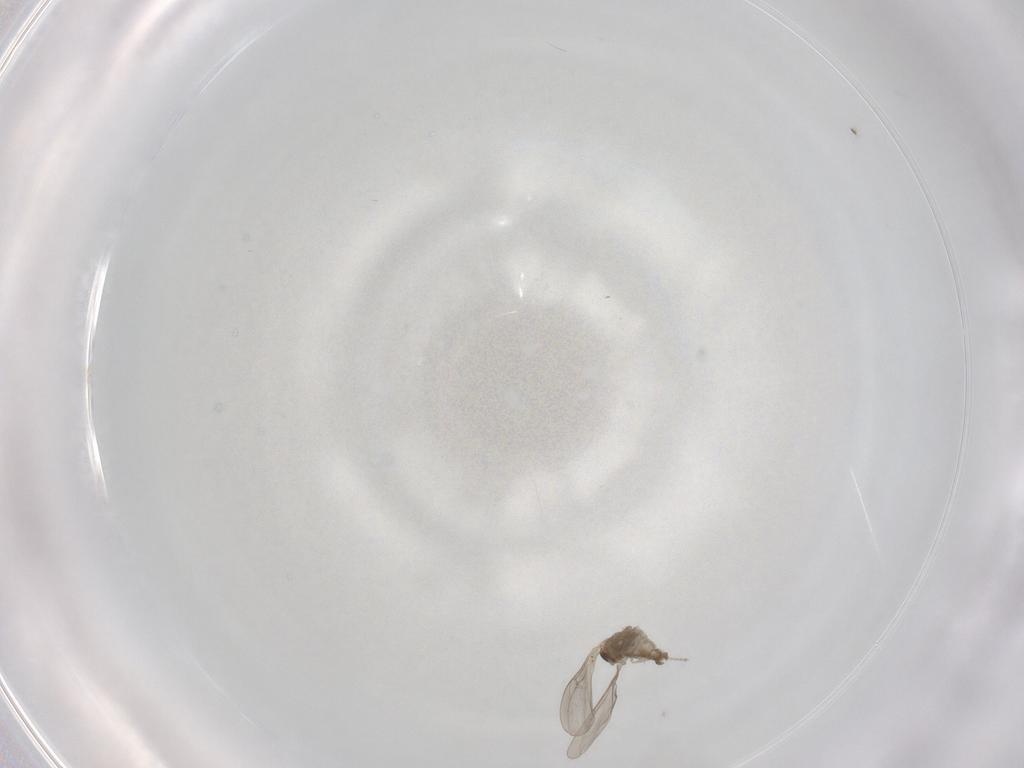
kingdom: Animalia
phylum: Arthropoda
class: Insecta
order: Diptera
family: Sciaridae
